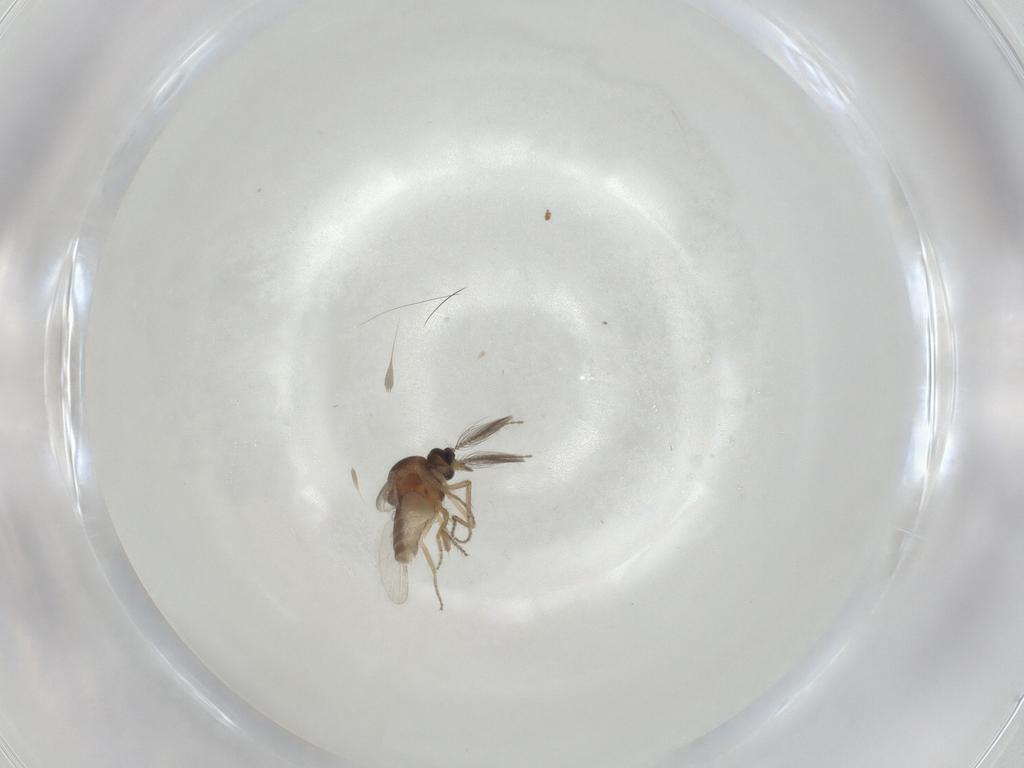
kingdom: Animalia
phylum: Arthropoda
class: Insecta
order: Diptera
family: Ceratopogonidae
